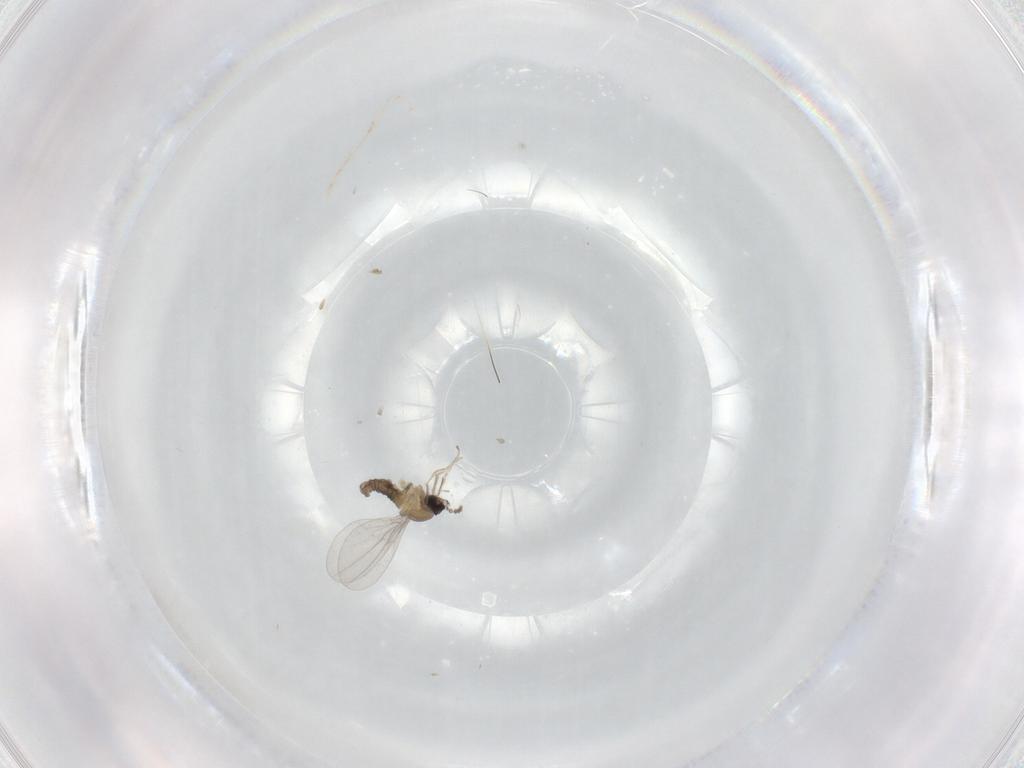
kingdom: Animalia
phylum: Arthropoda
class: Insecta
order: Diptera
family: Cecidomyiidae
